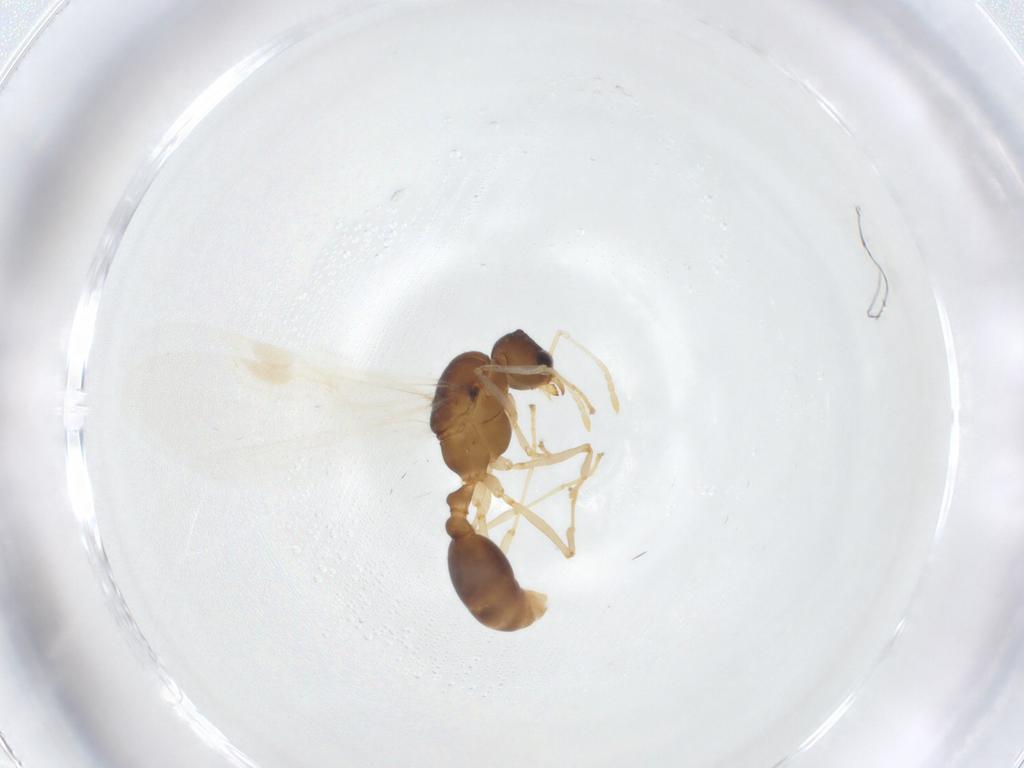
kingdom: Animalia
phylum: Arthropoda
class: Insecta
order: Hymenoptera
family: Formicidae
